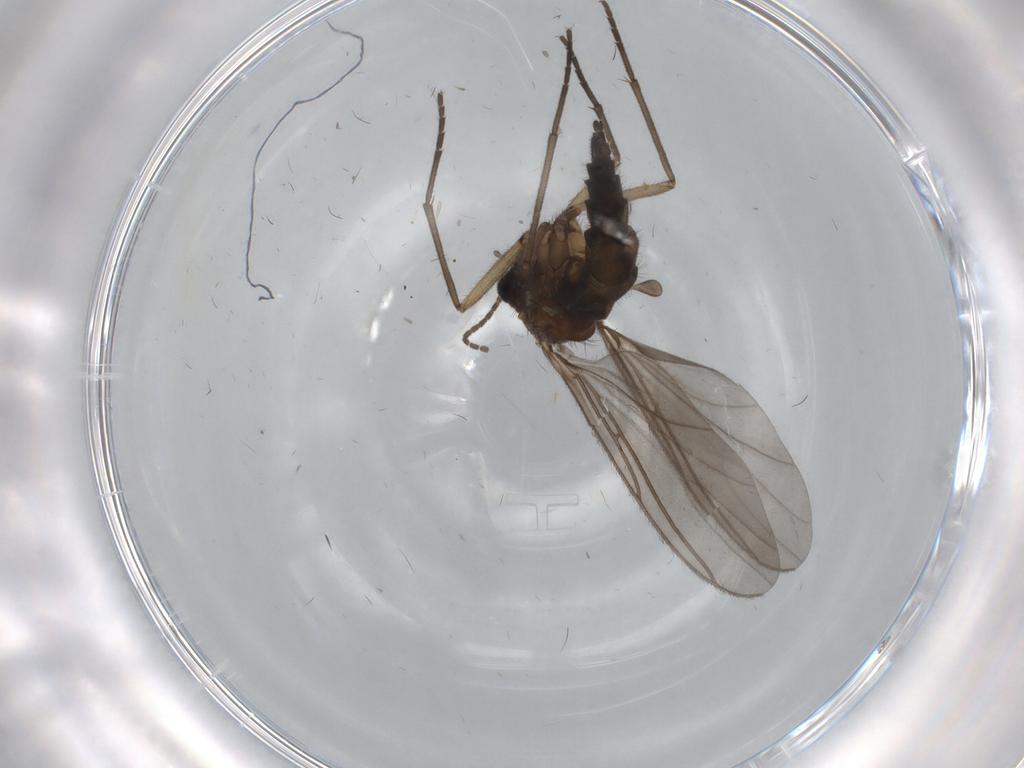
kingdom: Animalia
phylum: Arthropoda
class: Insecta
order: Diptera
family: Sciaridae
